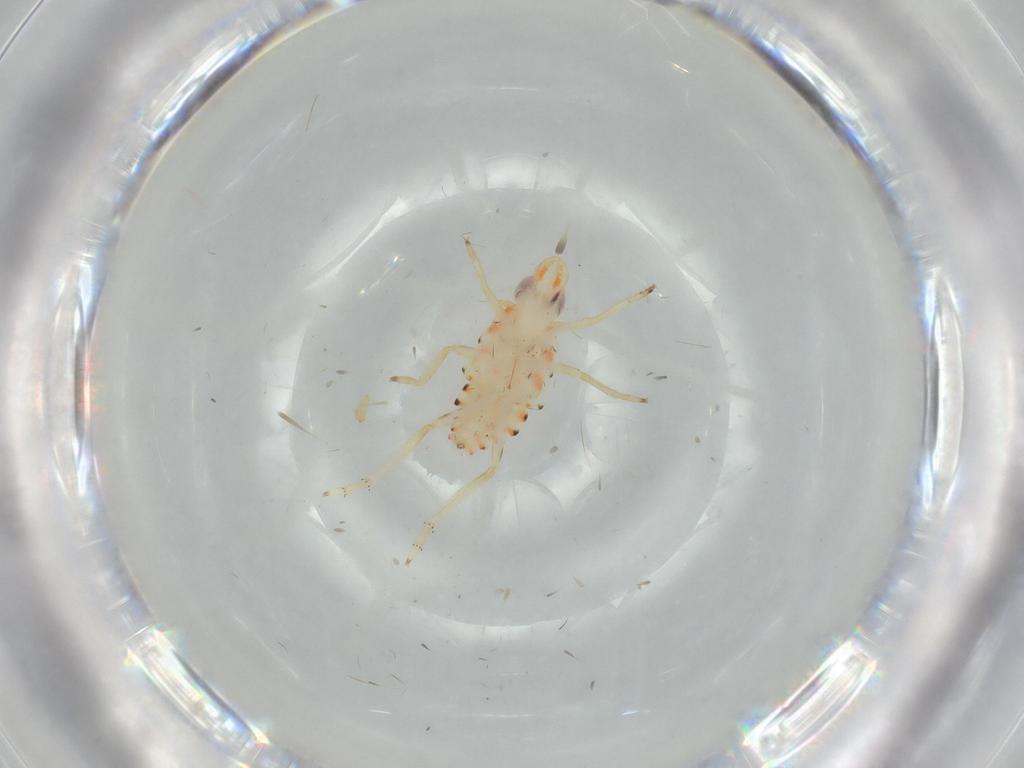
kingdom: Animalia
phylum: Arthropoda
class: Insecta
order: Hemiptera
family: Tropiduchidae
